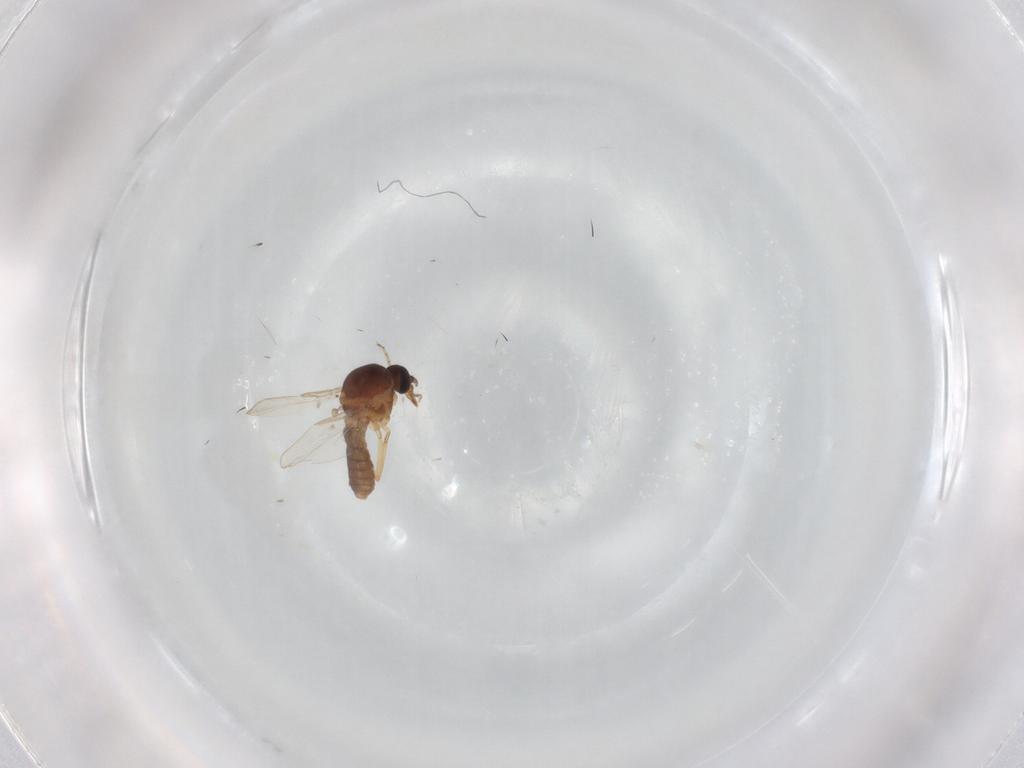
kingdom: Animalia
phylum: Arthropoda
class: Insecta
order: Diptera
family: Ceratopogonidae
